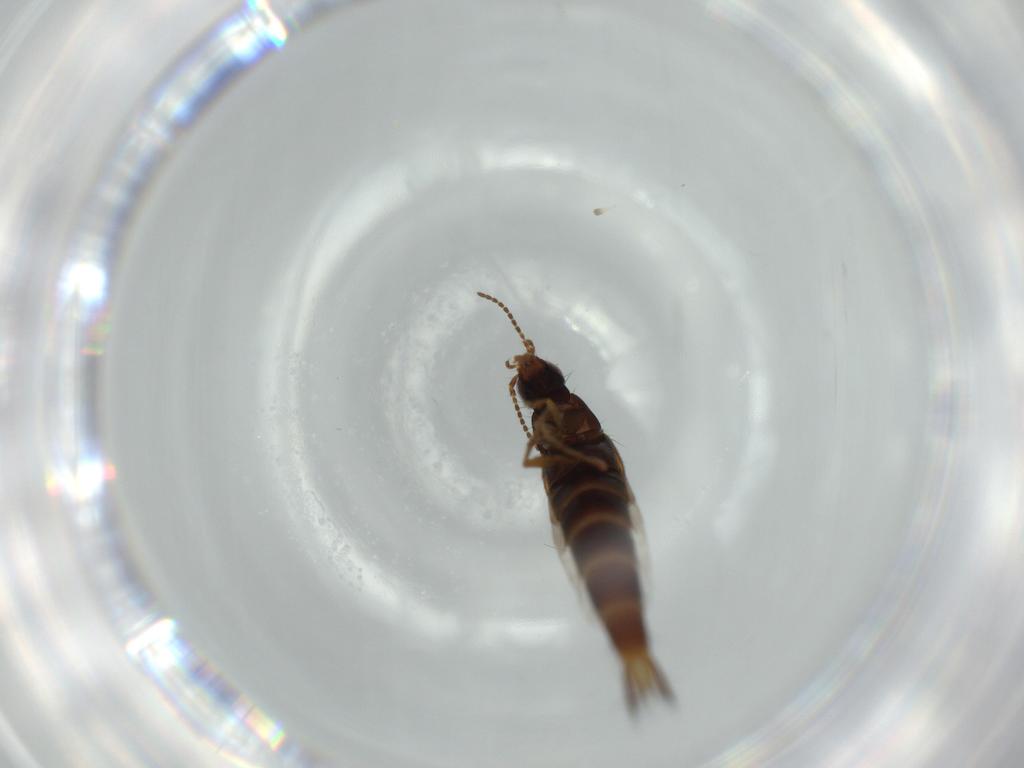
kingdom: Animalia
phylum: Arthropoda
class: Insecta
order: Coleoptera
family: Staphylinidae
